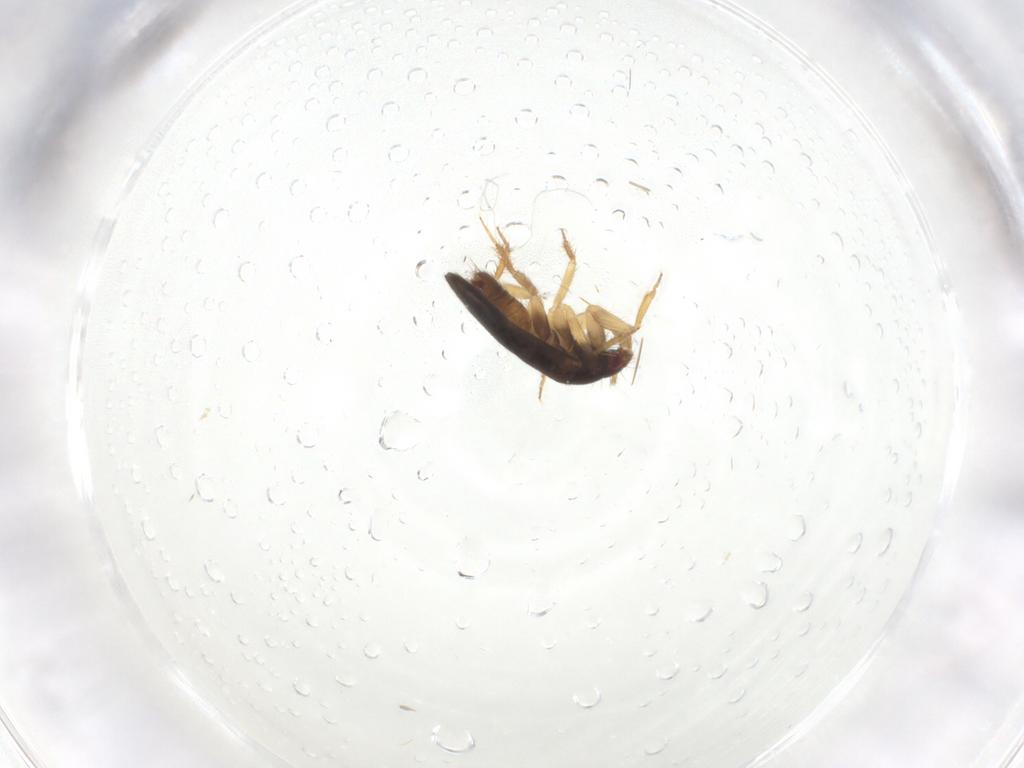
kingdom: Animalia
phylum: Arthropoda
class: Insecta
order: Hemiptera
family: Ceratocombidae
